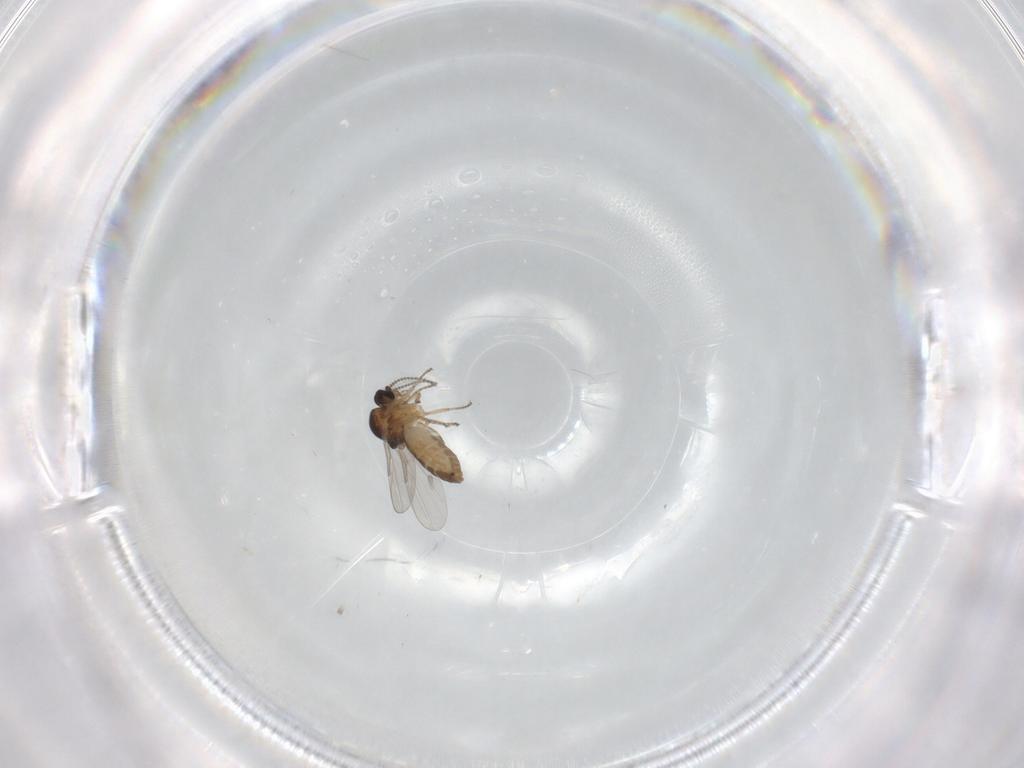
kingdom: Animalia
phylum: Arthropoda
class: Insecta
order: Diptera
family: Ceratopogonidae
